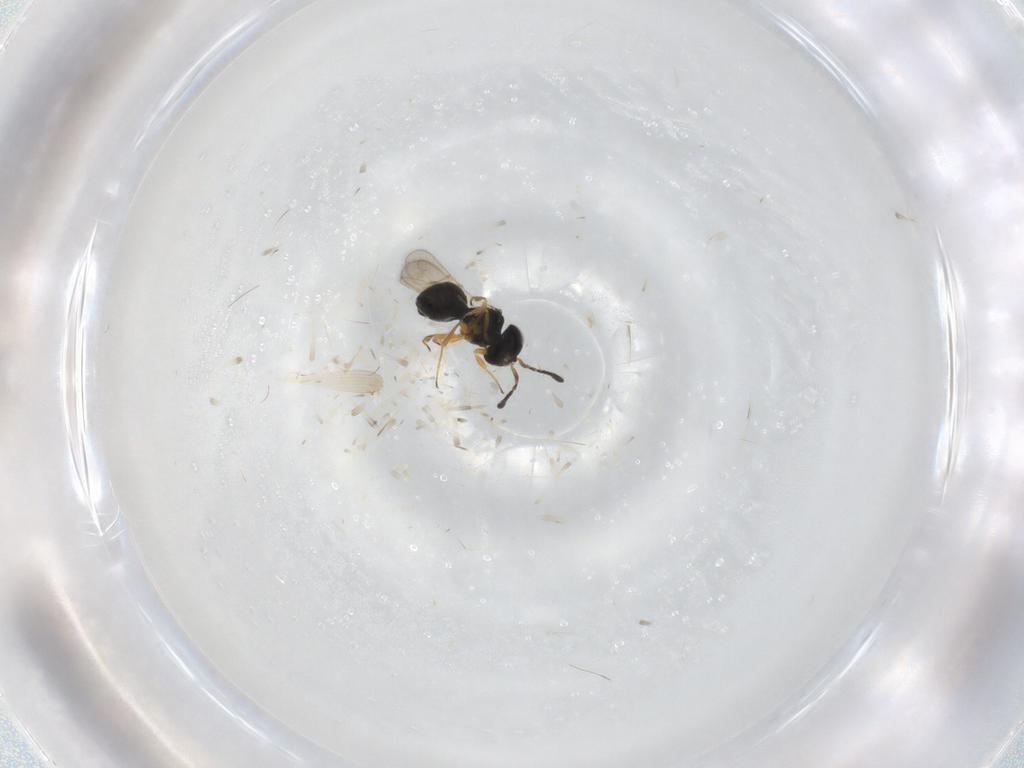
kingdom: Animalia
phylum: Arthropoda
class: Insecta
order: Hymenoptera
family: Scelionidae
